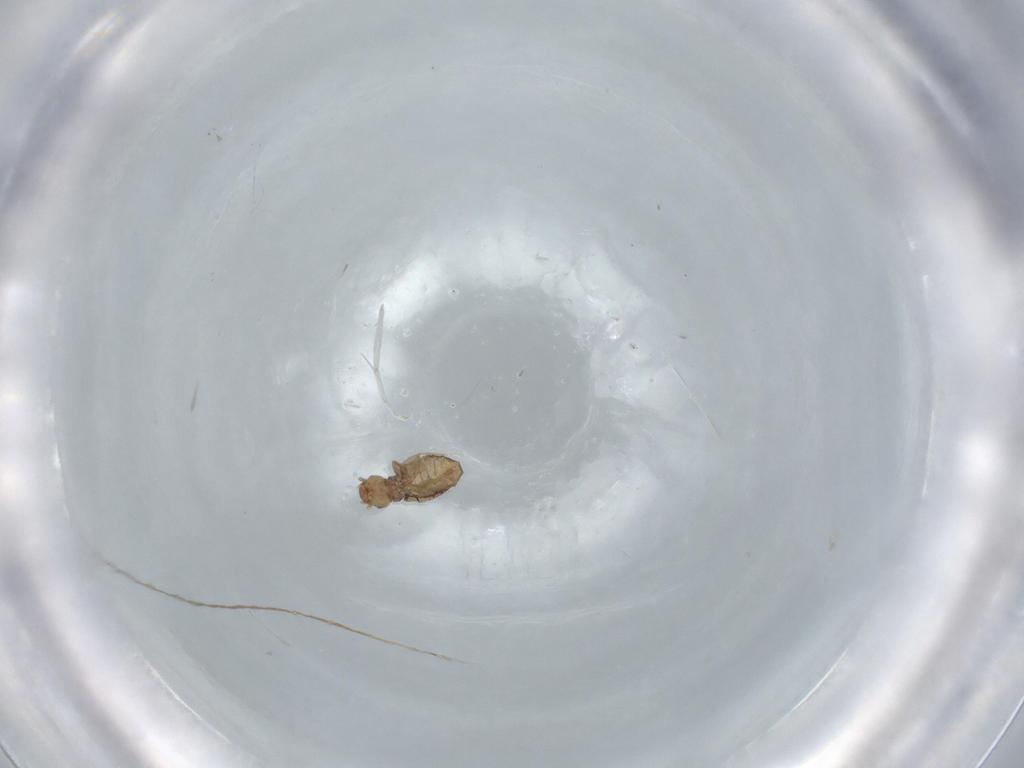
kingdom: Animalia
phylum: Arthropoda
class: Insecta
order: Psocodea
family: Liposcelididae
